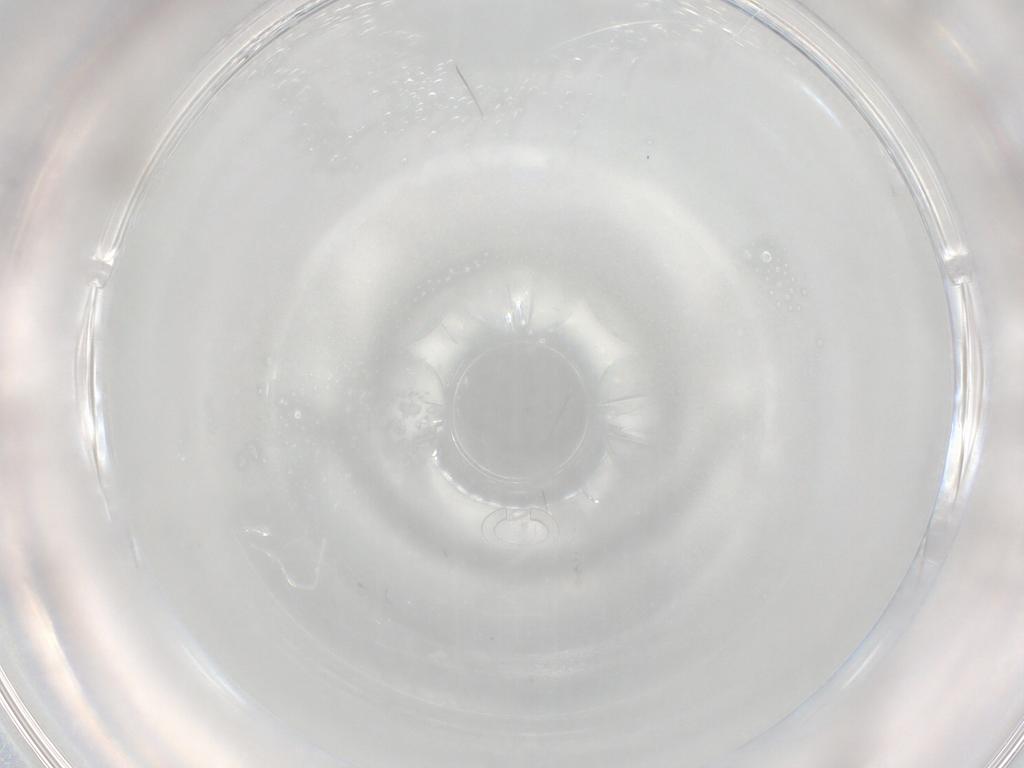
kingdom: Animalia
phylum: Arthropoda
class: Insecta
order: Diptera
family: Cecidomyiidae
